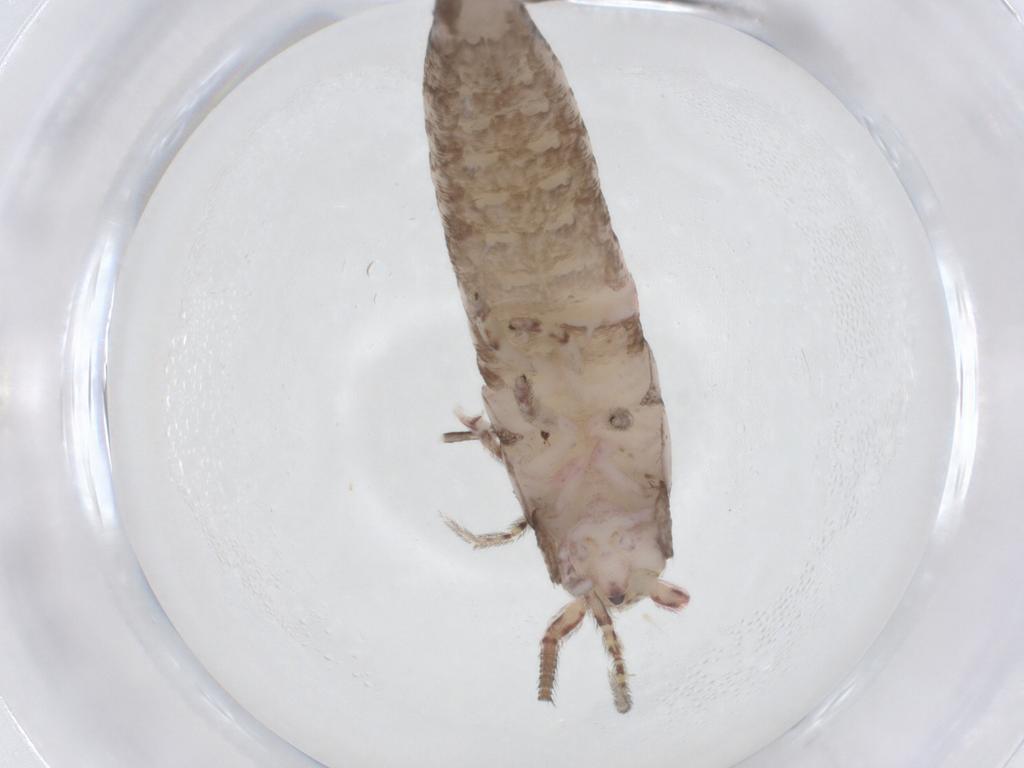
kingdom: Animalia
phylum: Arthropoda
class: Insecta
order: Archaeognatha
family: Machilidae
